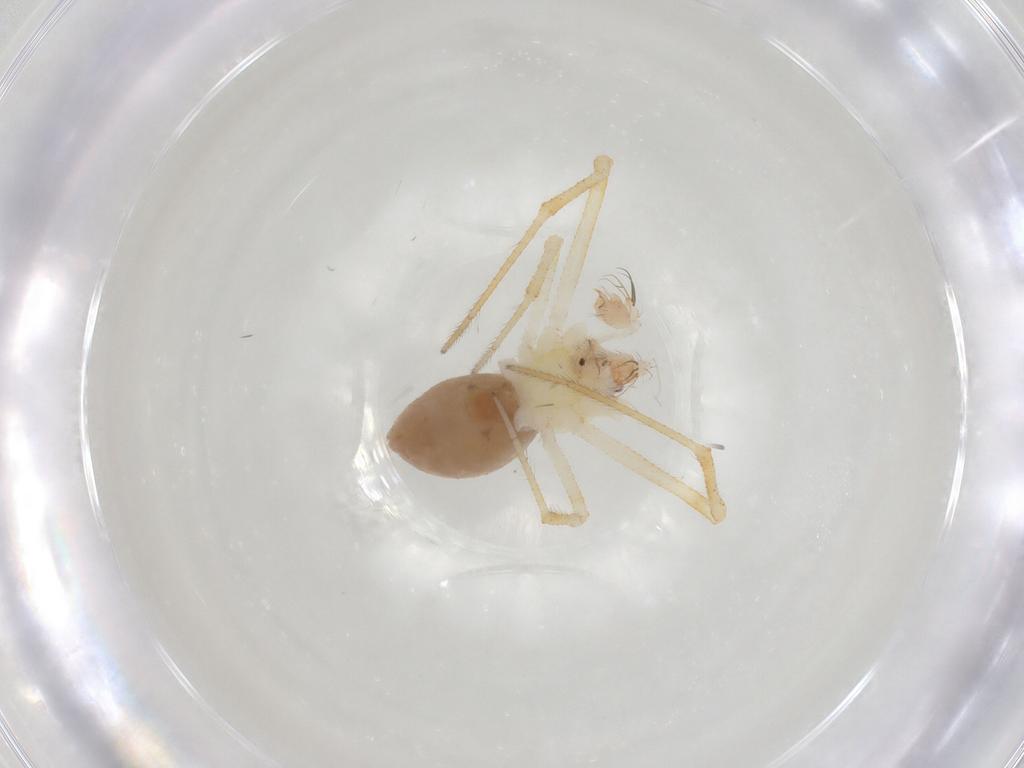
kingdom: Animalia
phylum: Arthropoda
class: Arachnida
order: Araneae
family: Theridiidae
